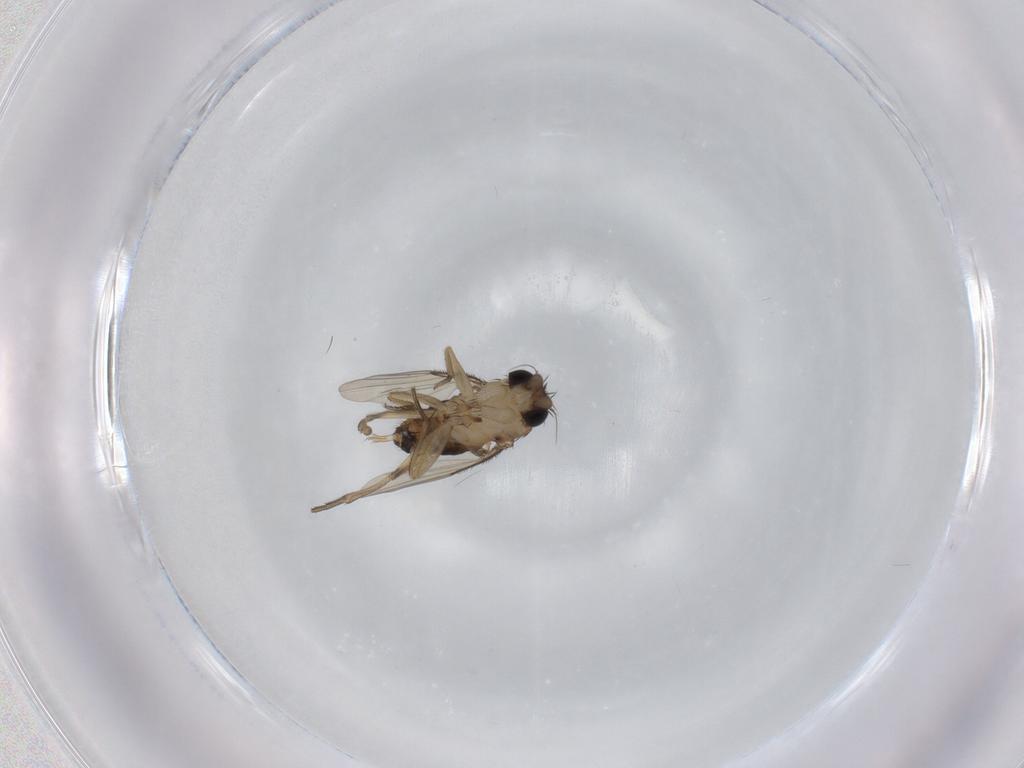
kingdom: Animalia
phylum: Arthropoda
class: Insecta
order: Diptera
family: Phoridae
